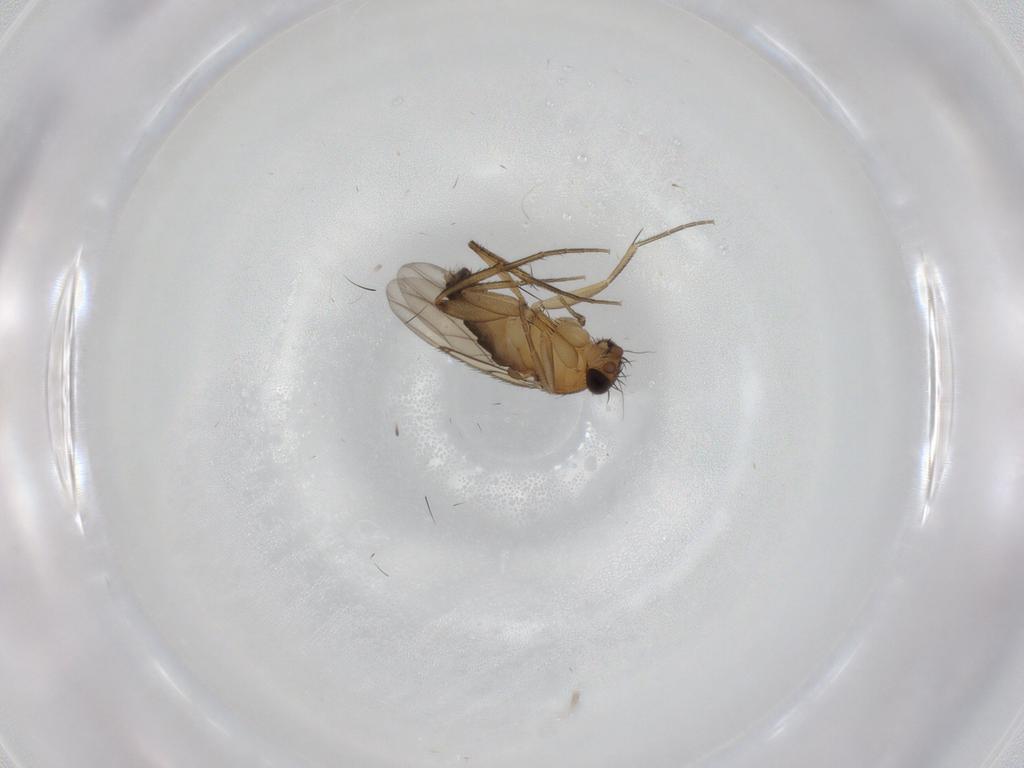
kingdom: Animalia
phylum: Arthropoda
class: Insecta
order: Diptera
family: Phoridae
